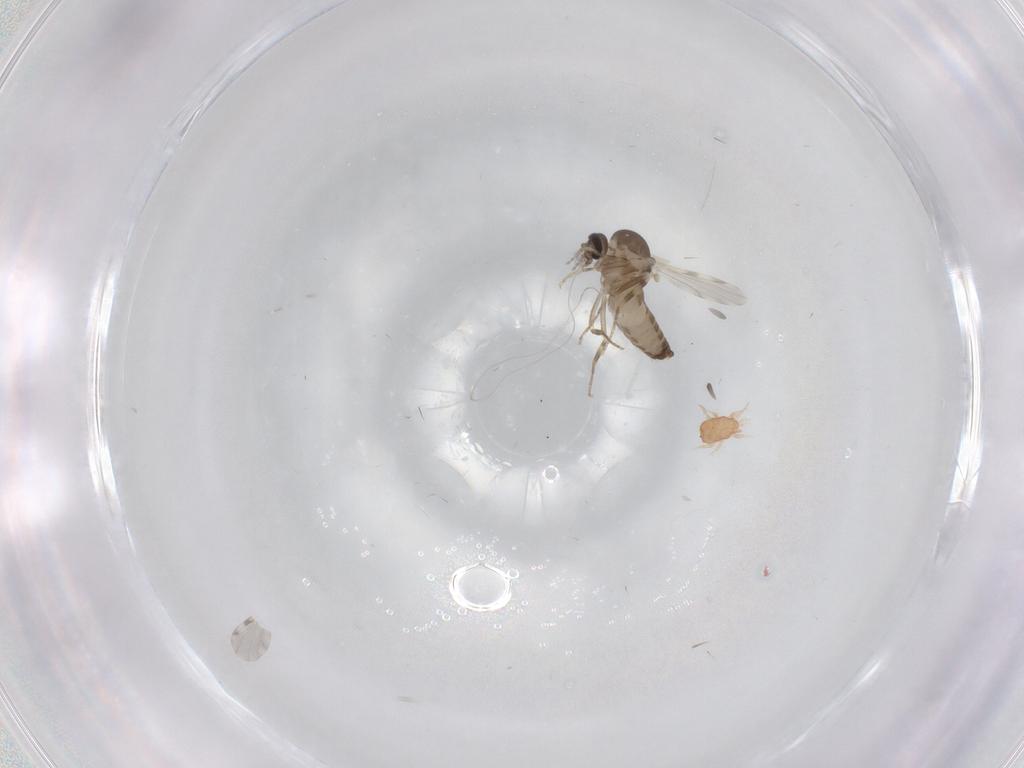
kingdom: Animalia
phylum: Arthropoda
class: Insecta
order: Diptera
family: Cecidomyiidae
